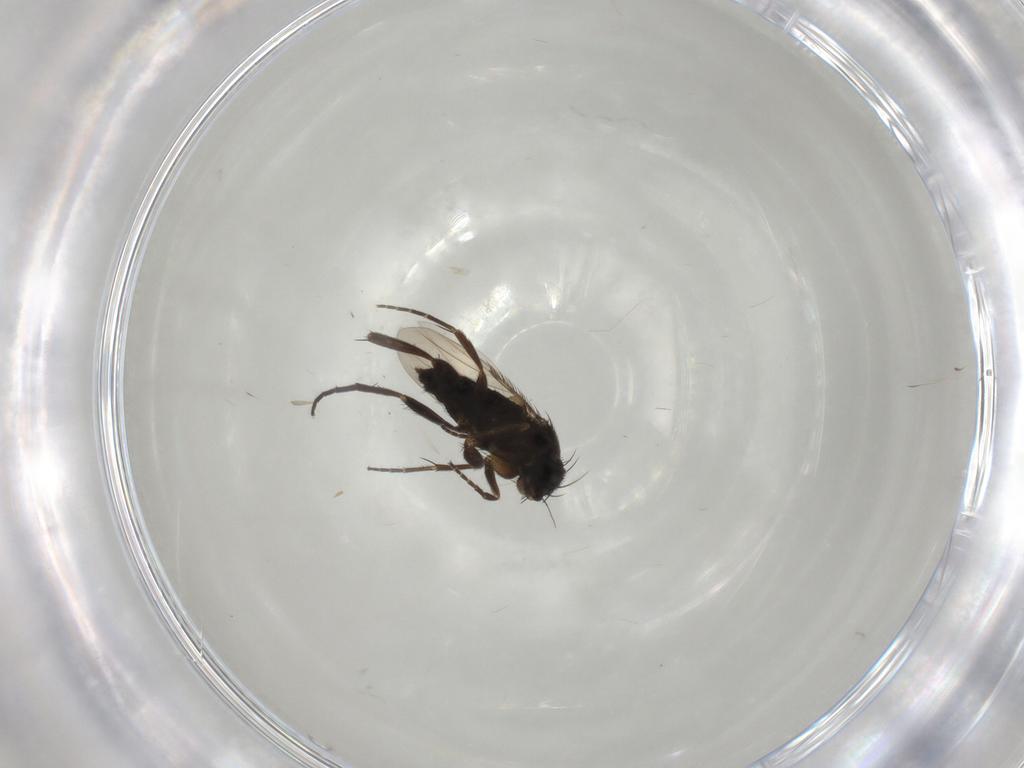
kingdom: Animalia
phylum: Arthropoda
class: Insecta
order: Diptera
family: Phoridae
